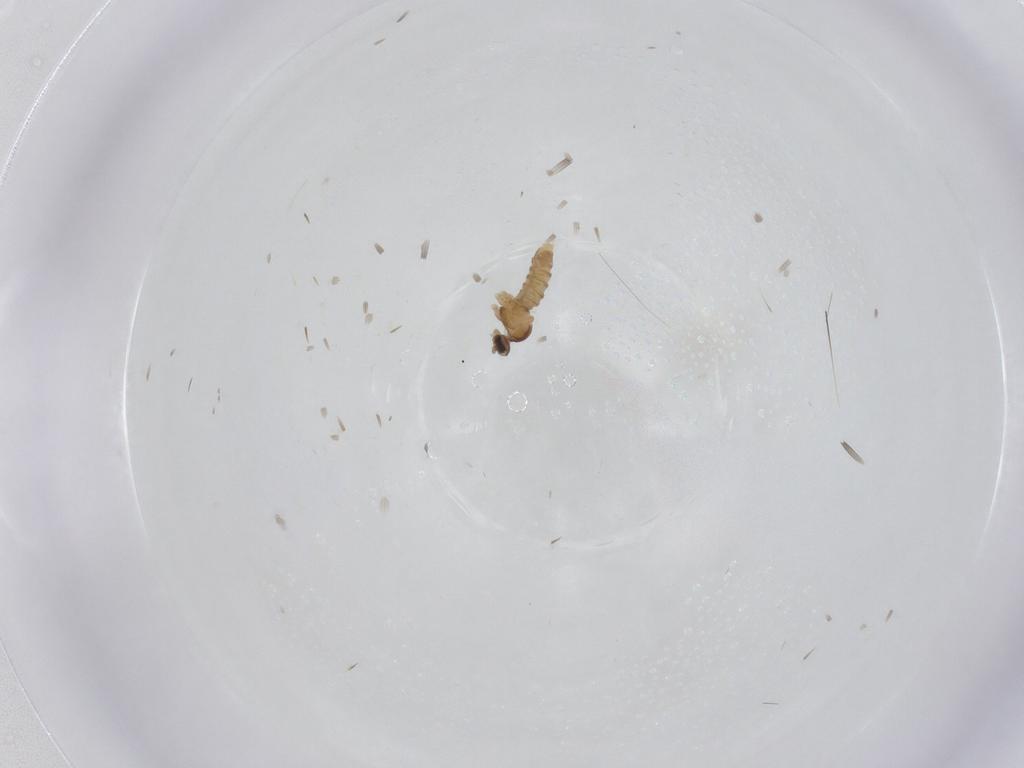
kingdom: Animalia
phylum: Arthropoda
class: Insecta
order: Diptera
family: Cecidomyiidae
